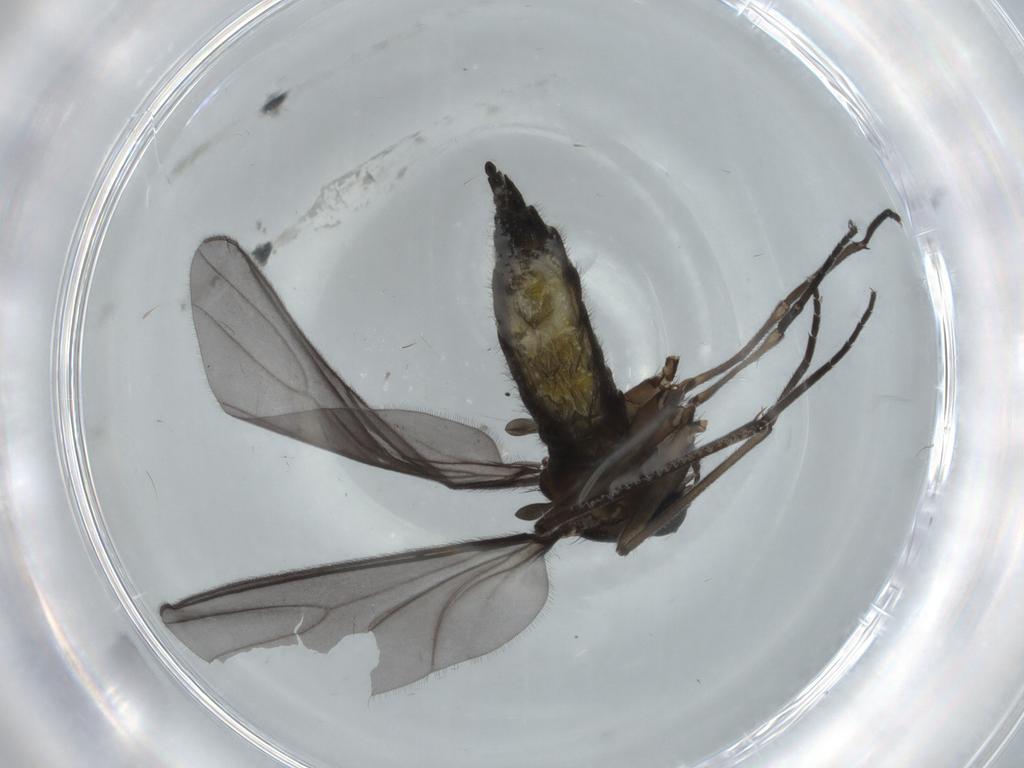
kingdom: Animalia
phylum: Arthropoda
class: Insecta
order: Diptera
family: Sciaridae
